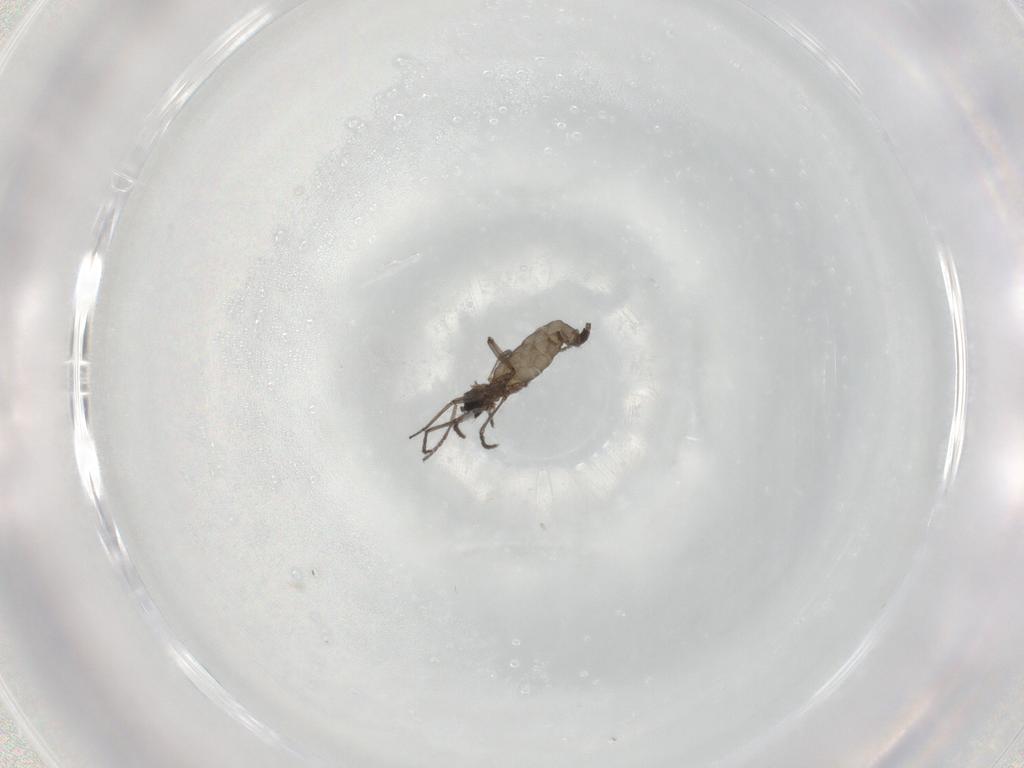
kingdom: Animalia
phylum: Arthropoda
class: Insecta
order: Diptera
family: Sciaridae
